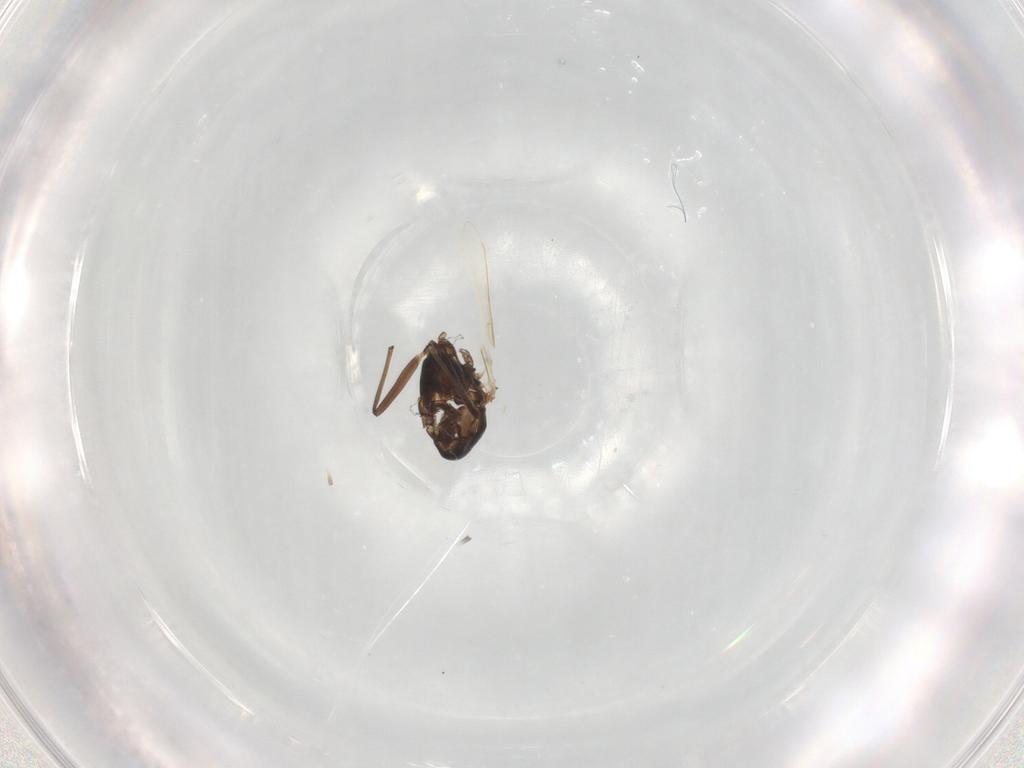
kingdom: Animalia
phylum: Arthropoda
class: Insecta
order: Diptera
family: Chironomidae
